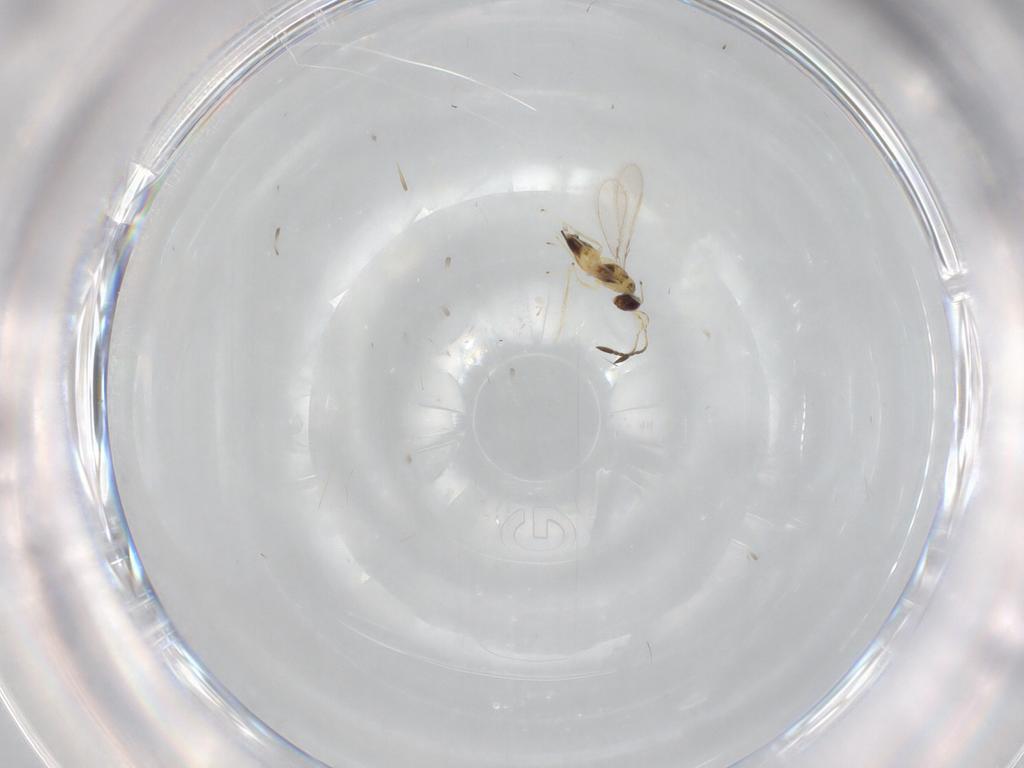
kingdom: Animalia
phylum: Arthropoda
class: Insecta
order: Hymenoptera
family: Mymaridae
